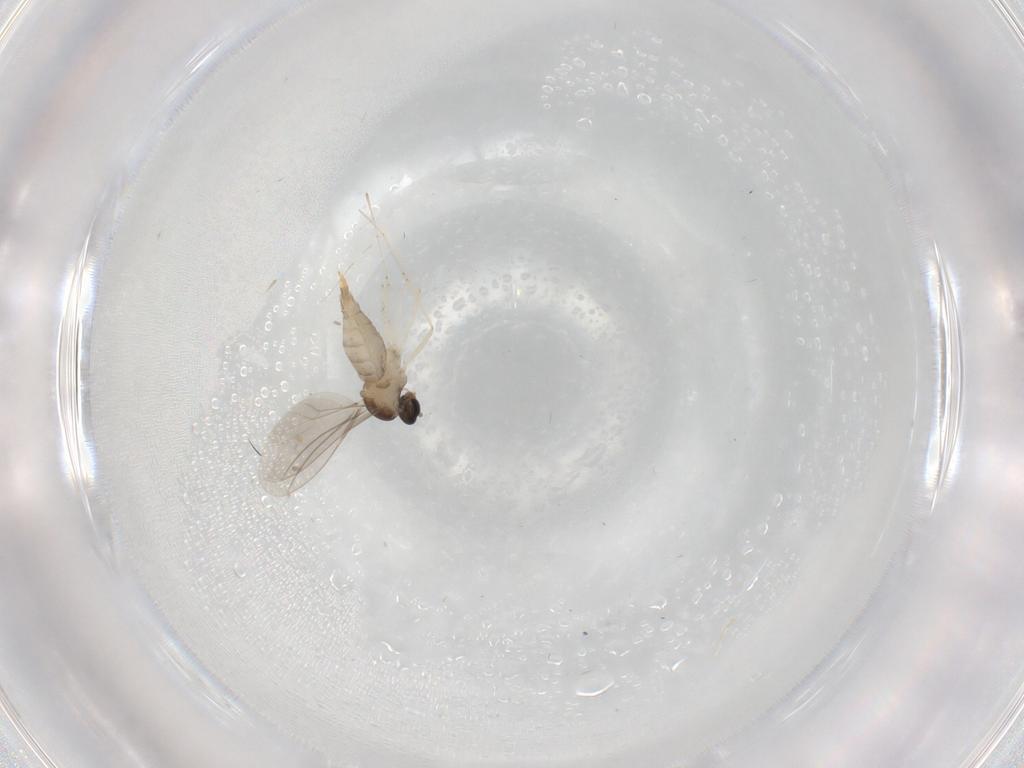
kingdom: Animalia
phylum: Arthropoda
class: Insecta
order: Diptera
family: Cecidomyiidae
